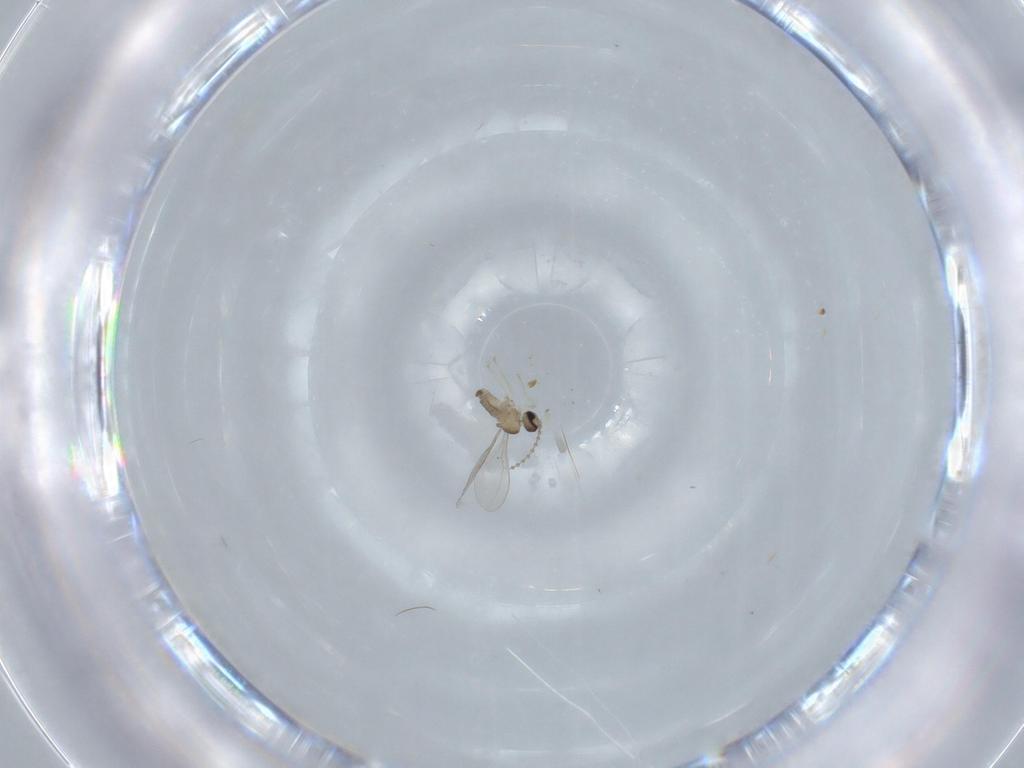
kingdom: Animalia
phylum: Arthropoda
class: Insecta
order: Diptera
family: Cecidomyiidae
